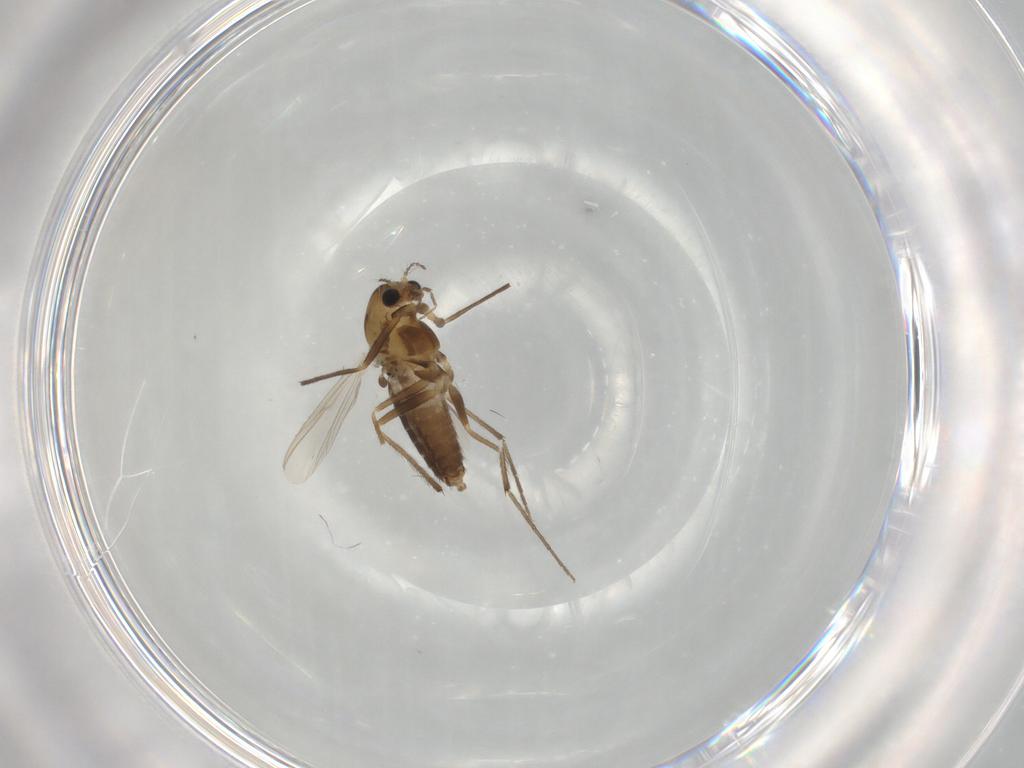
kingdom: Animalia
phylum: Arthropoda
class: Insecta
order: Diptera
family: Chironomidae
